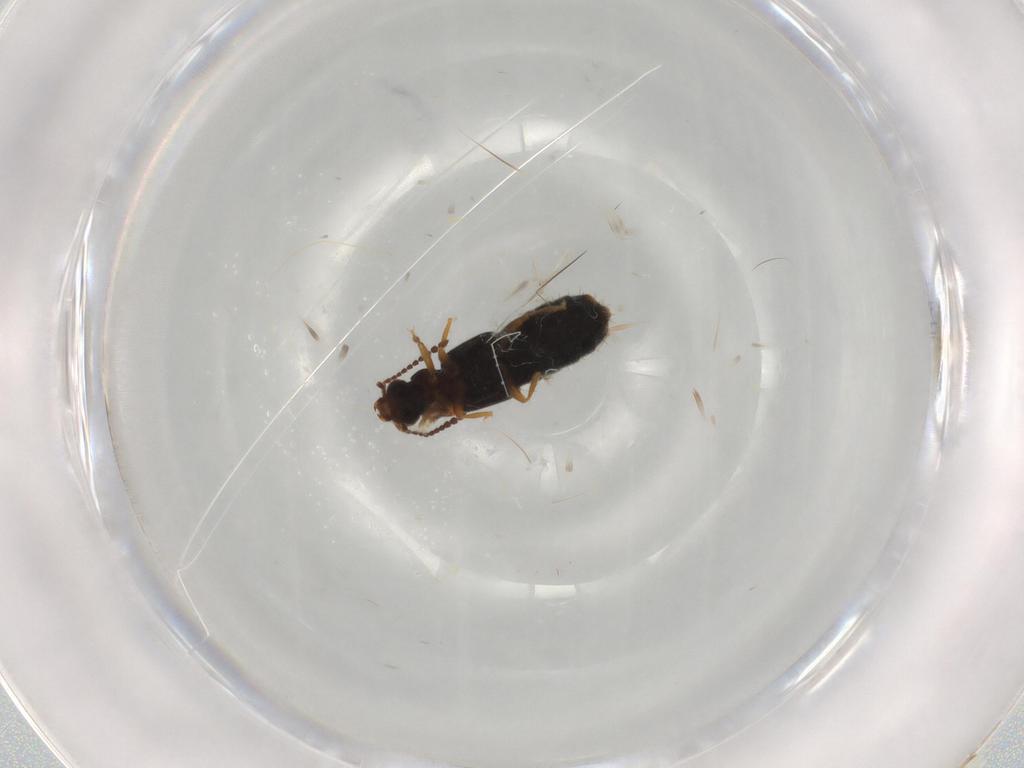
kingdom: Animalia
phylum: Arthropoda
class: Insecta
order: Coleoptera
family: Staphylinidae
